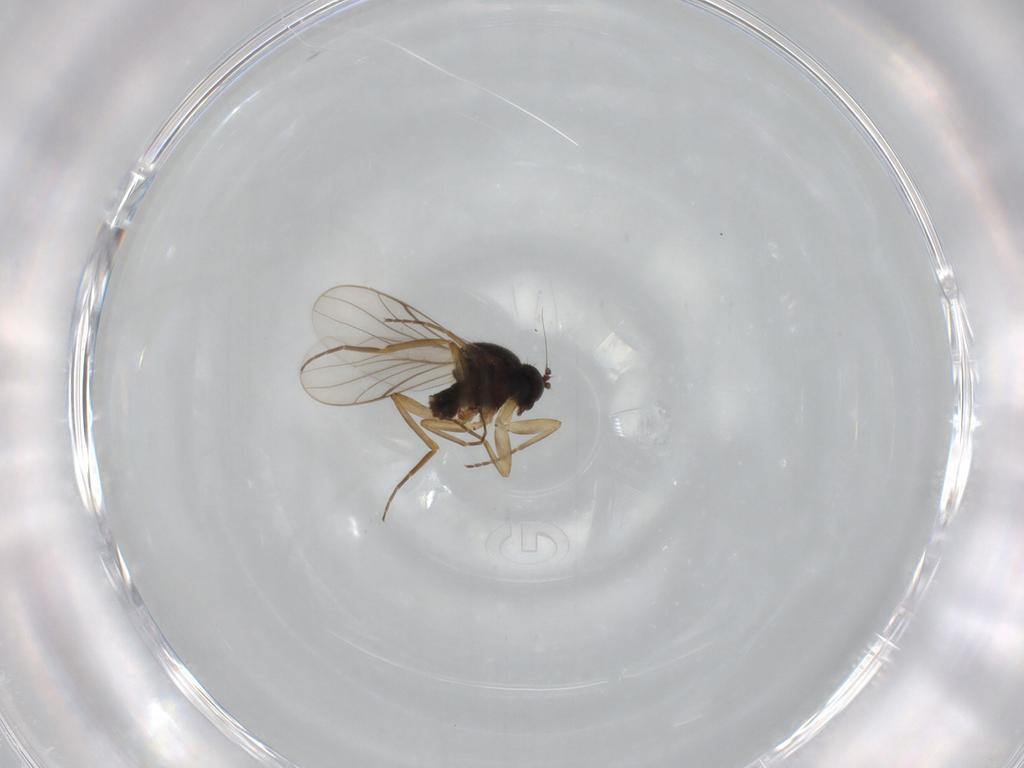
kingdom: Animalia
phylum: Arthropoda
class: Insecta
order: Diptera
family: Hybotidae
